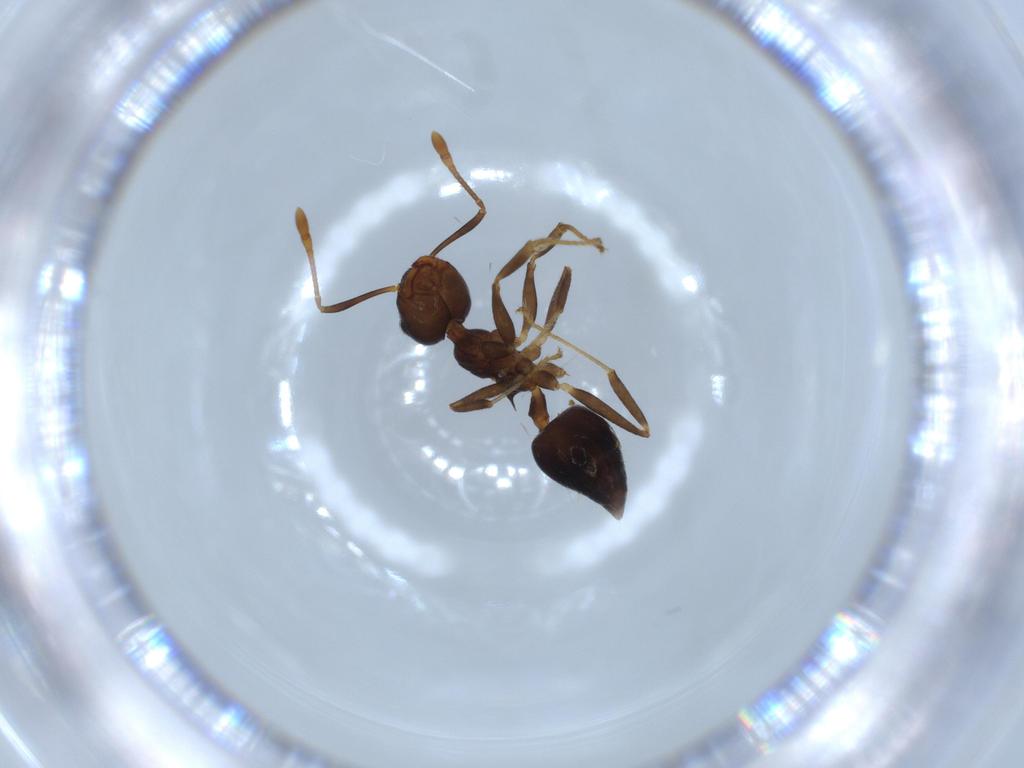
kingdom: Animalia
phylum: Arthropoda
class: Insecta
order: Hymenoptera
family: Formicidae
